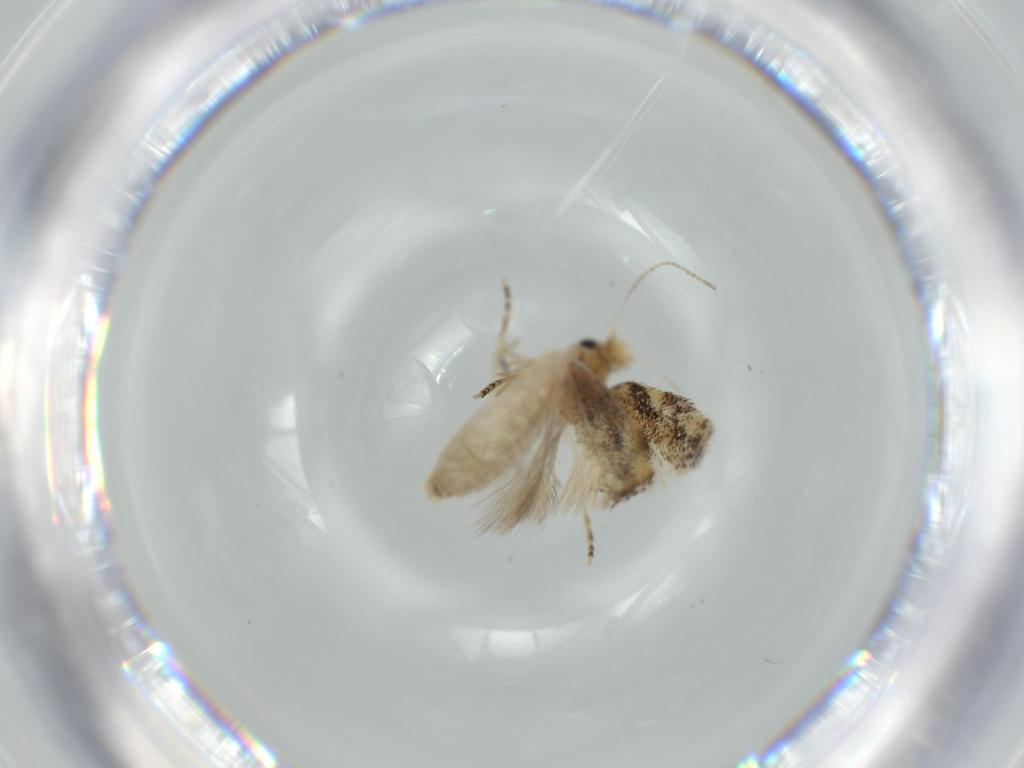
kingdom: Animalia
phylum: Arthropoda
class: Insecta
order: Lepidoptera
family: Bucculatricidae
